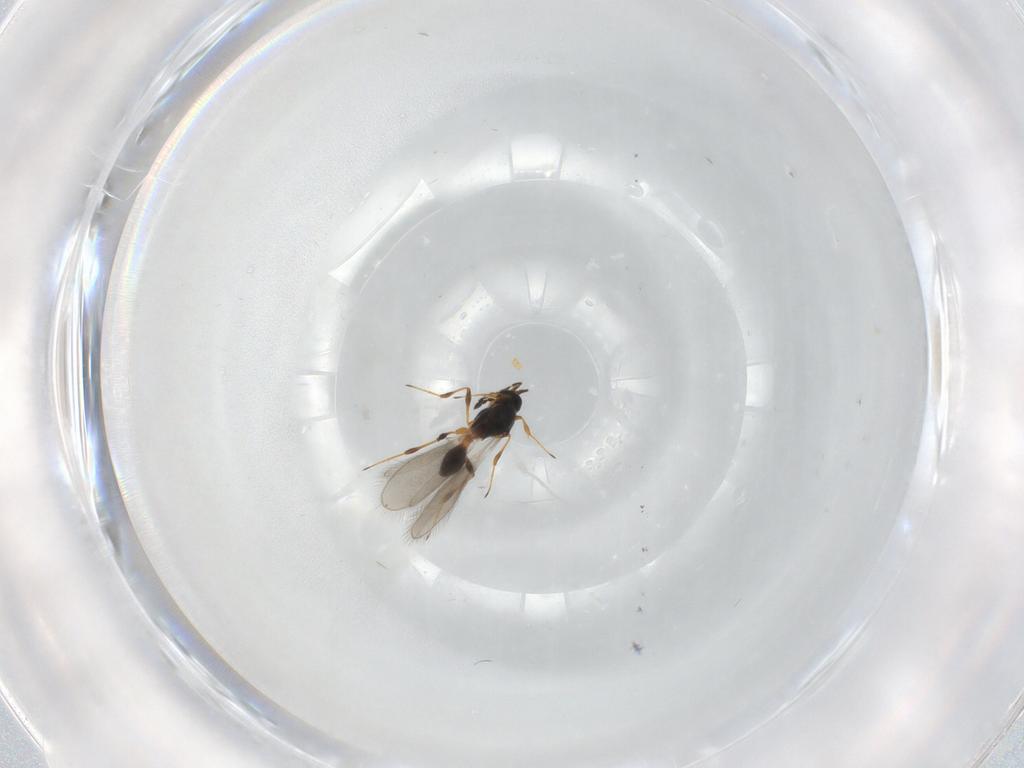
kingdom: Animalia
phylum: Arthropoda
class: Insecta
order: Hymenoptera
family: Platygastridae
